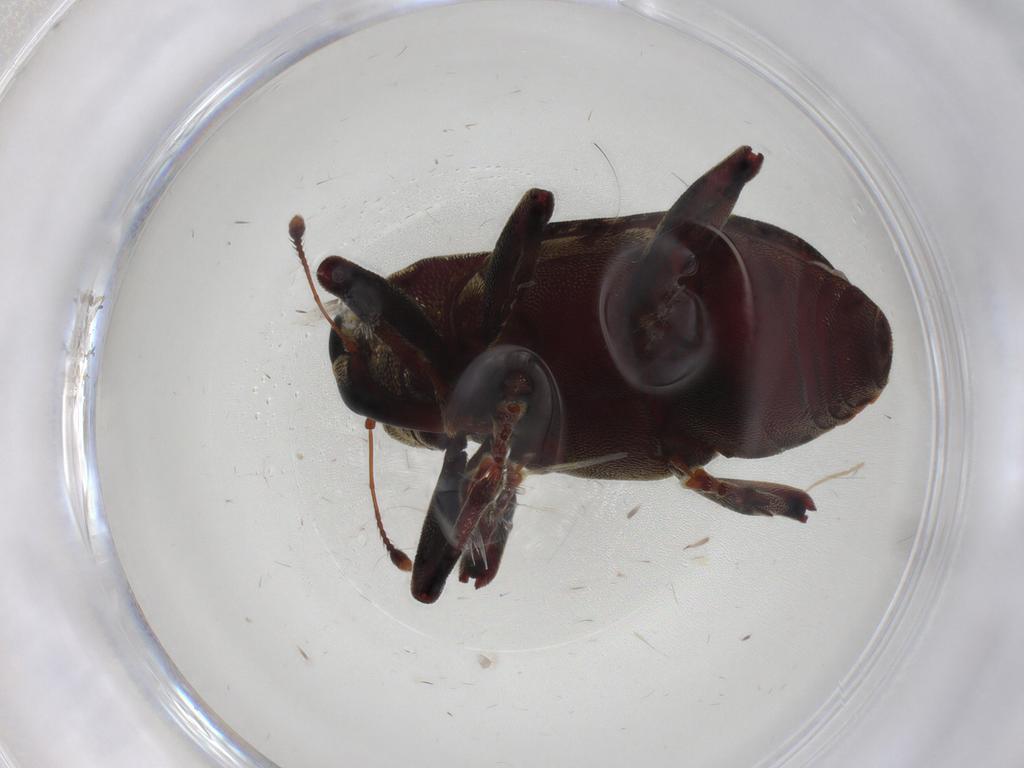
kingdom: Animalia
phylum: Arthropoda
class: Insecta
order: Coleoptera
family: Curculionidae
